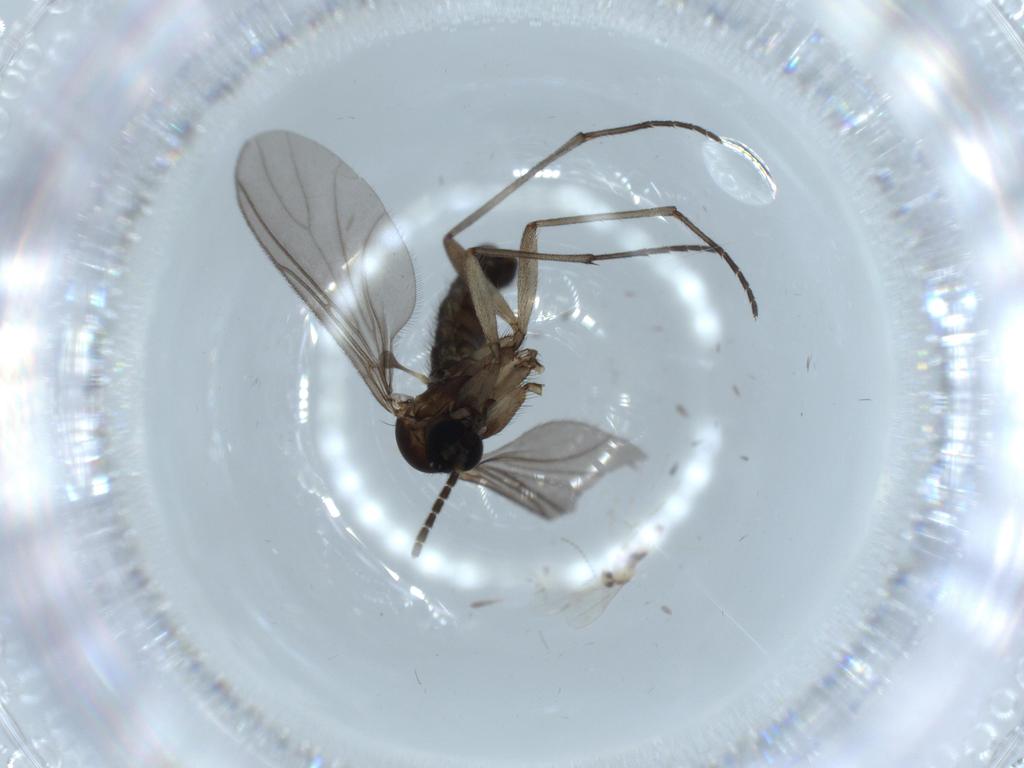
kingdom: Animalia
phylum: Arthropoda
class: Insecta
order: Diptera
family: Sciaridae
